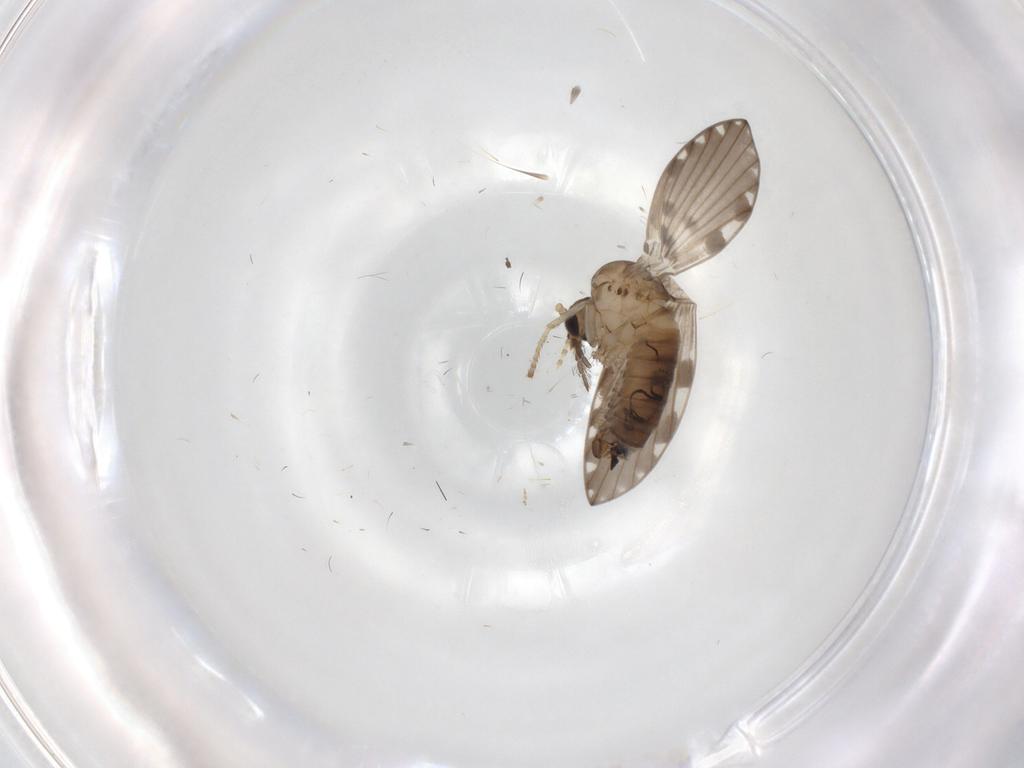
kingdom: Animalia
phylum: Arthropoda
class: Insecta
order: Diptera
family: Psychodidae
